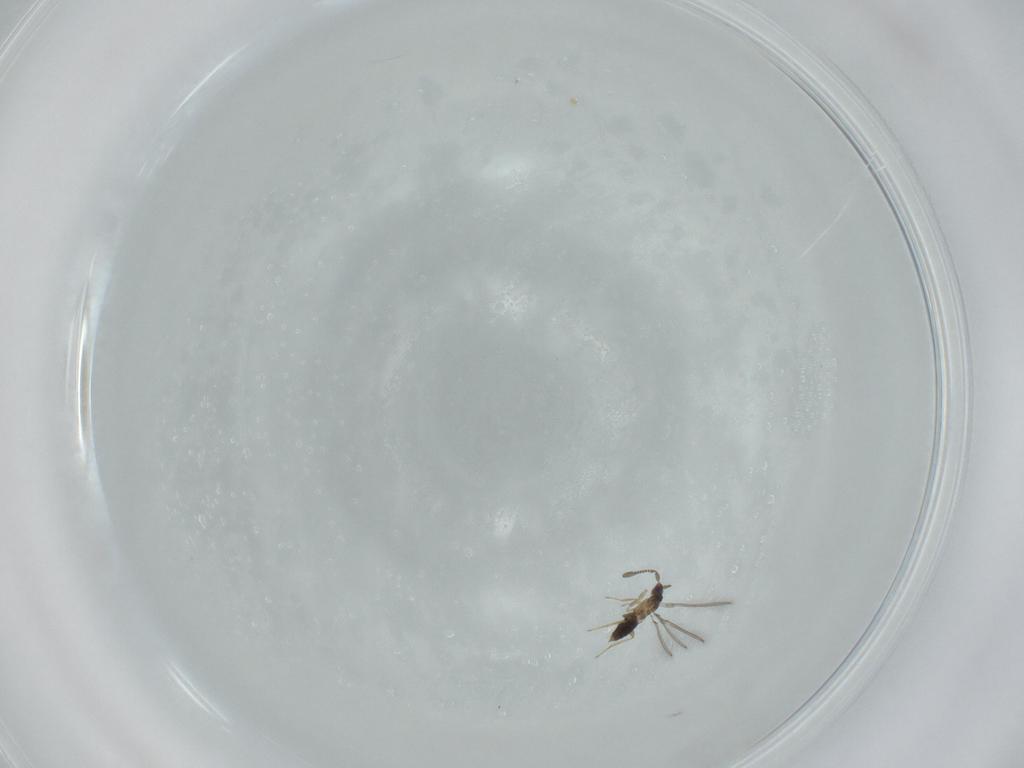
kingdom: Animalia
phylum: Arthropoda
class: Insecta
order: Hymenoptera
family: Mymaridae
